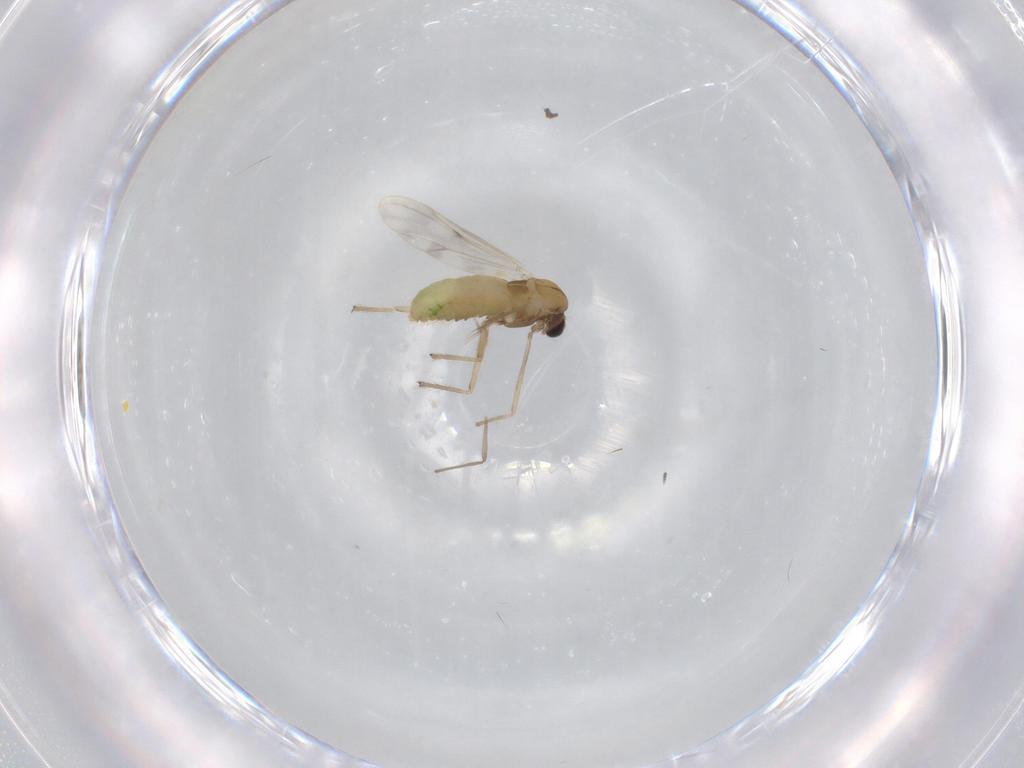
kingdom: Animalia
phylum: Arthropoda
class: Insecta
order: Diptera
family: Chironomidae
